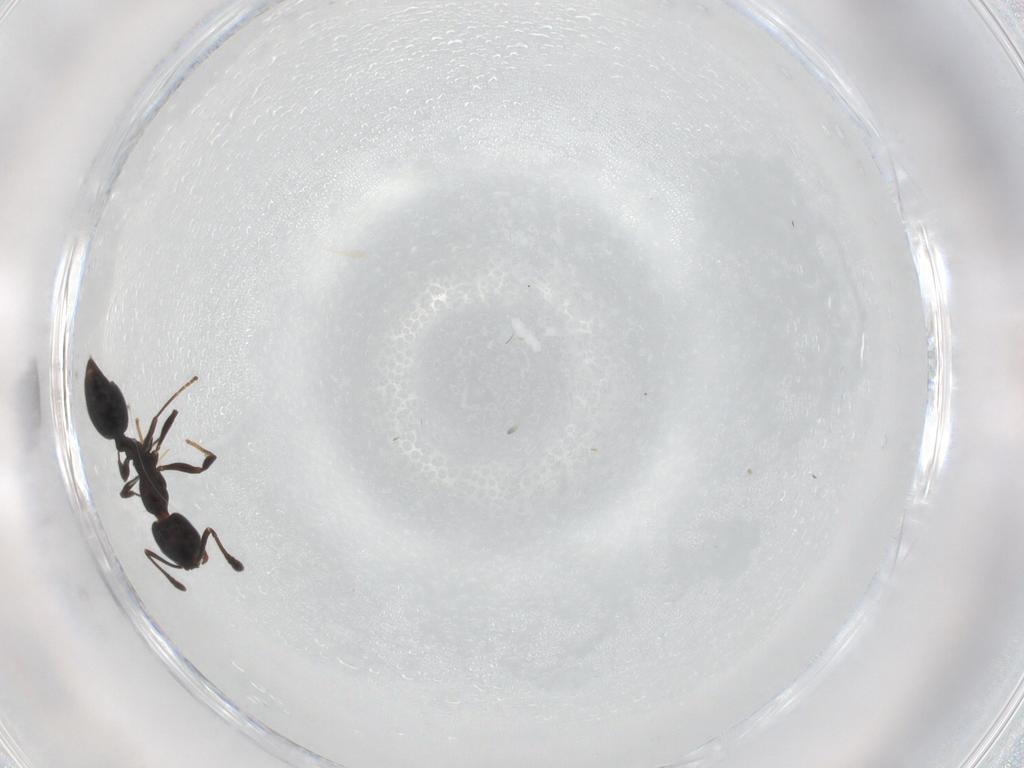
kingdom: Animalia
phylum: Arthropoda
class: Insecta
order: Hymenoptera
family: Formicidae
